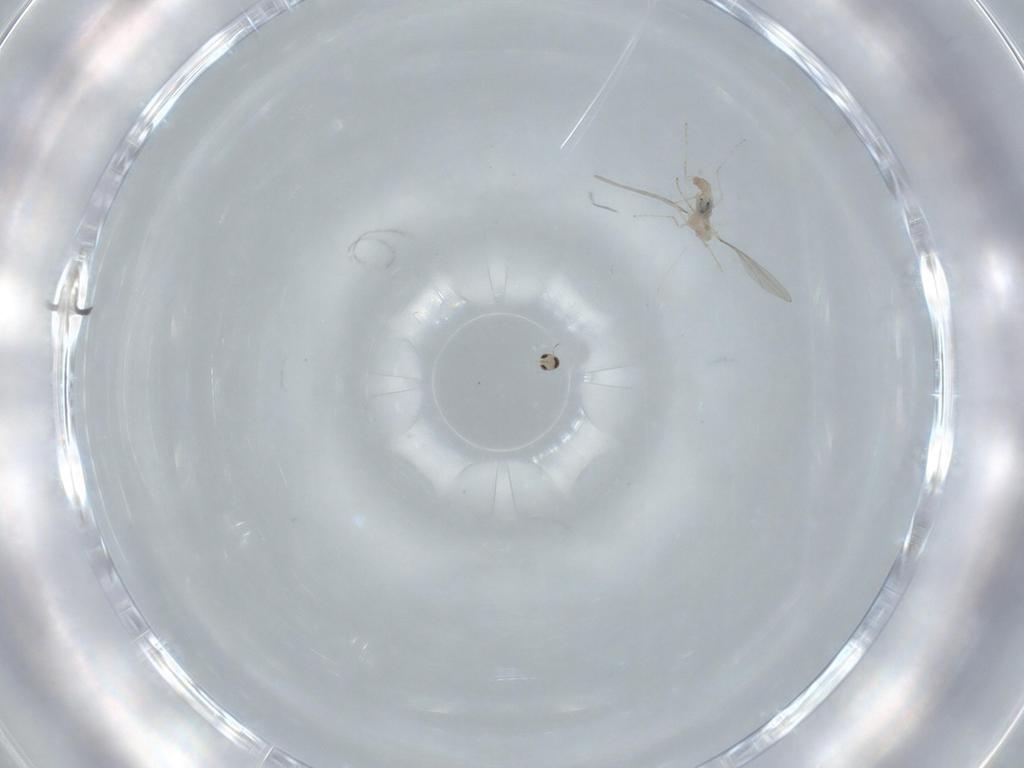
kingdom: Animalia
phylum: Arthropoda
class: Insecta
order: Diptera
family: Cecidomyiidae
